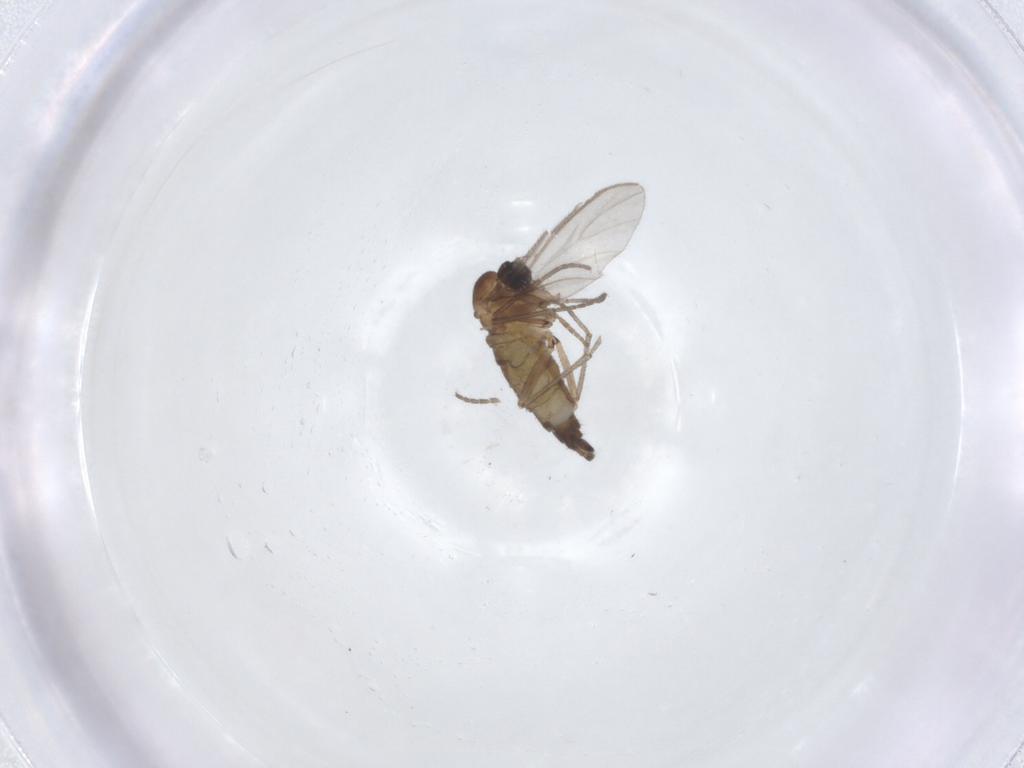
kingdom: Animalia
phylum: Arthropoda
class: Insecta
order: Diptera
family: Psychodidae
